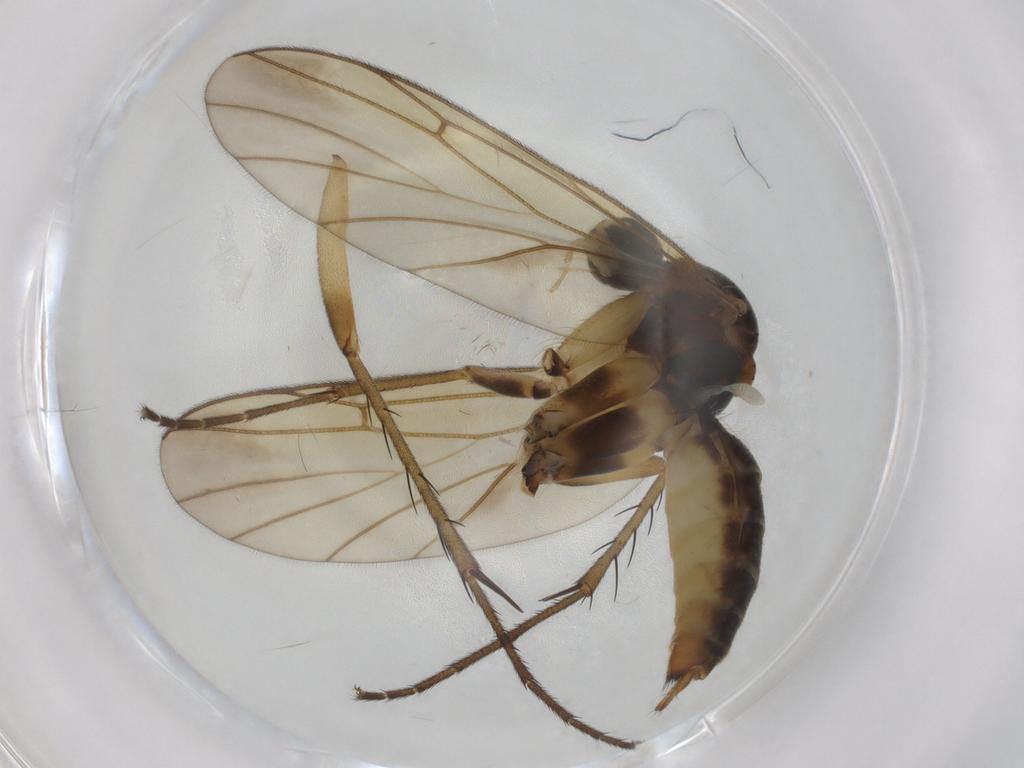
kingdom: Animalia
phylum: Arthropoda
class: Insecta
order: Diptera
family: Mycetophilidae
